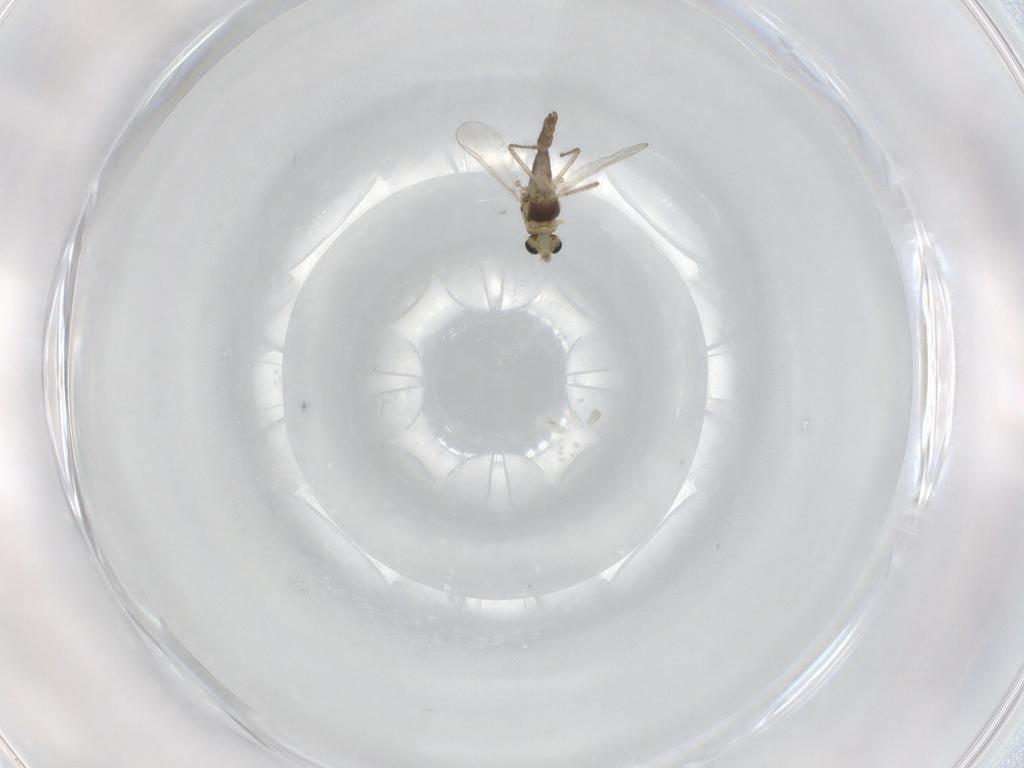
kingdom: Animalia
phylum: Arthropoda
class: Insecta
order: Diptera
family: Chironomidae
